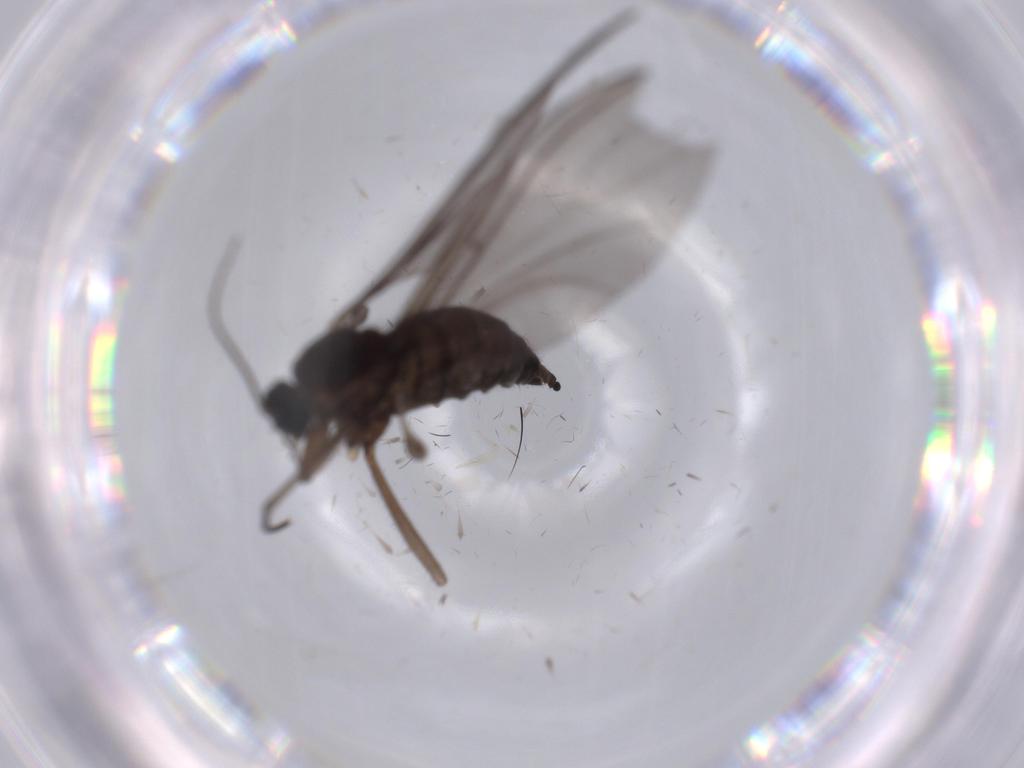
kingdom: Animalia
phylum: Arthropoda
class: Insecta
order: Diptera
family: Sciaridae
